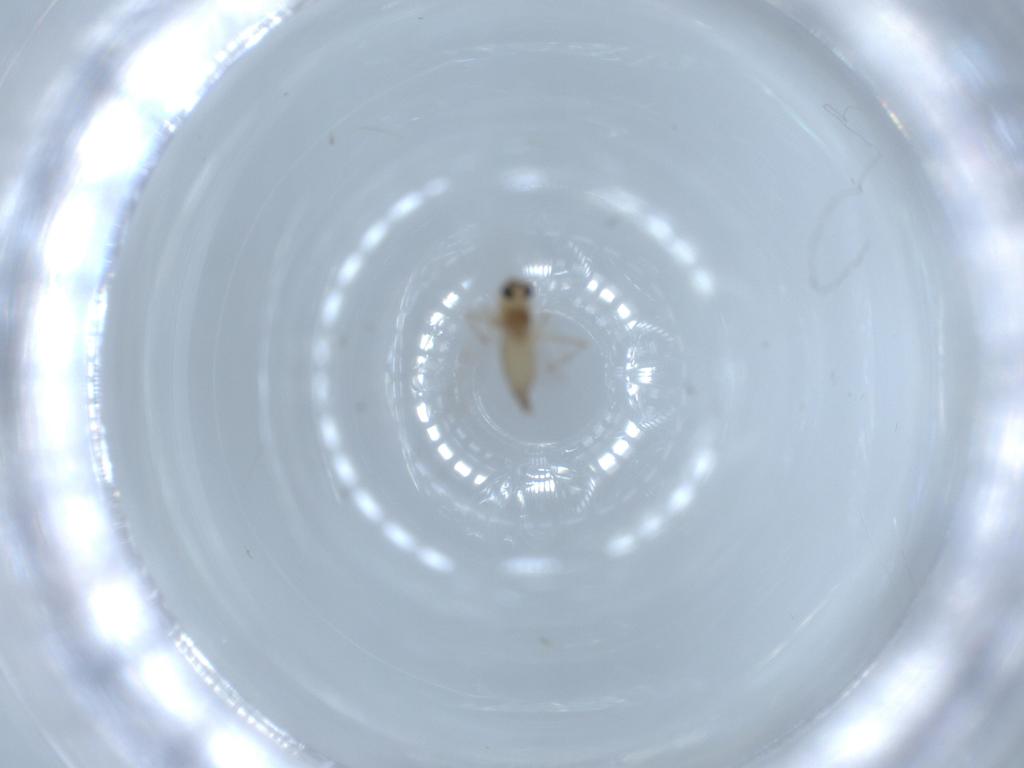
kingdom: Animalia
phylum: Arthropoda
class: Insecta
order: Diptera
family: Chironomidae
